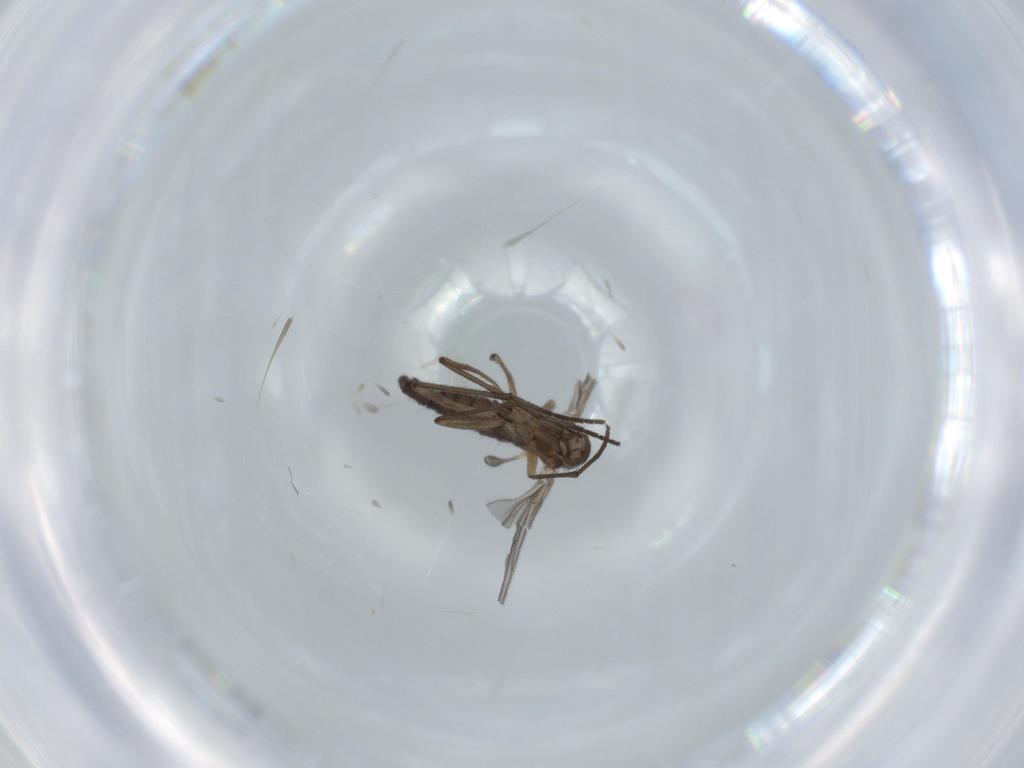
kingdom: Animalia
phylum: Arthropoda
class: Insecta
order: Diptera
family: Sciaridae
